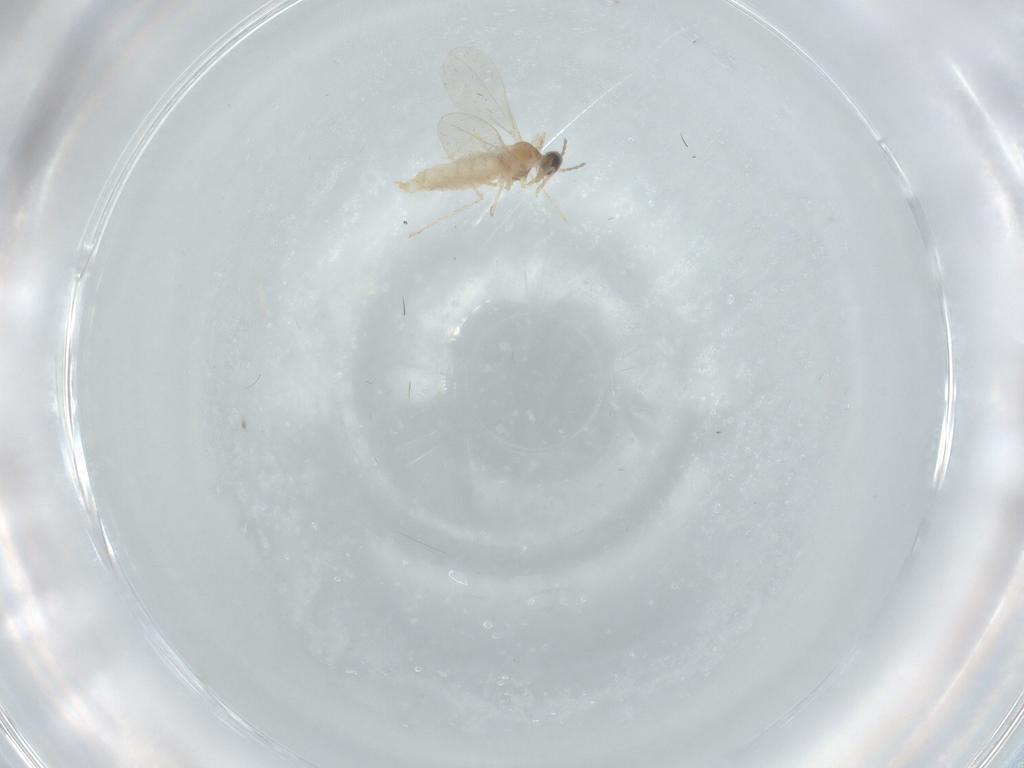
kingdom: Animalia
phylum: Arthropoda
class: Insecta
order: Diptera
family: Cecidomyiidae
